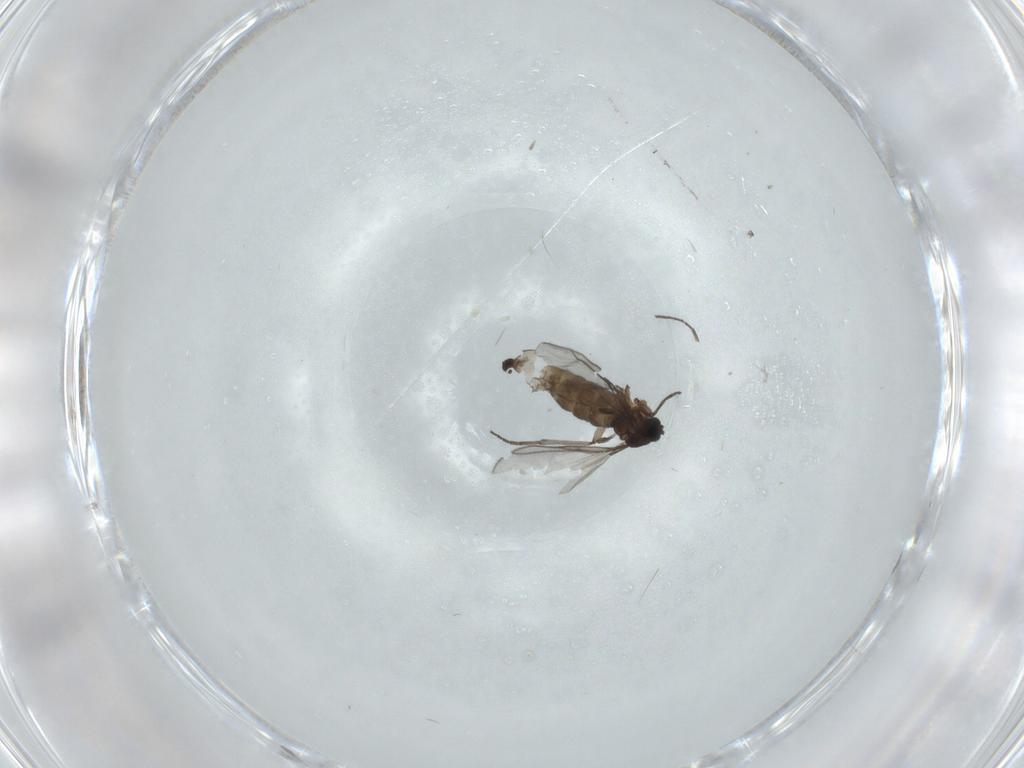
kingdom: Animalia
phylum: Arthropoda
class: Insecta
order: Diptera
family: Sciaridae
